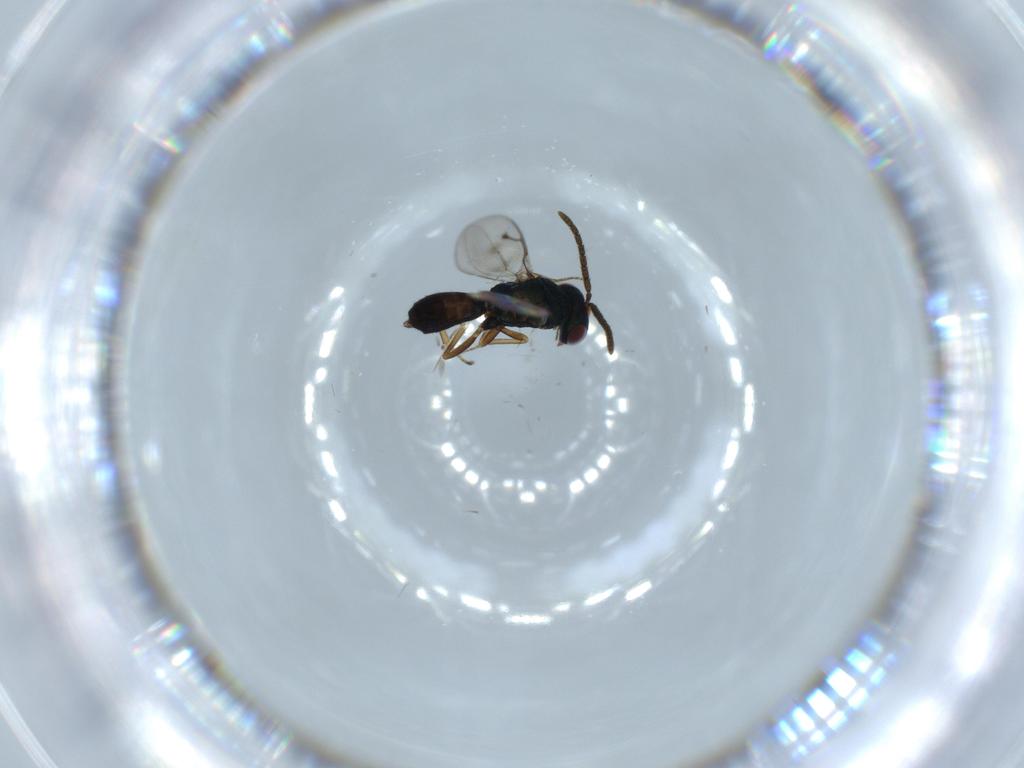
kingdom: Animalia
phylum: Arthropoda
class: Insecta
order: Hymenoptera
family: Pteromalidae
